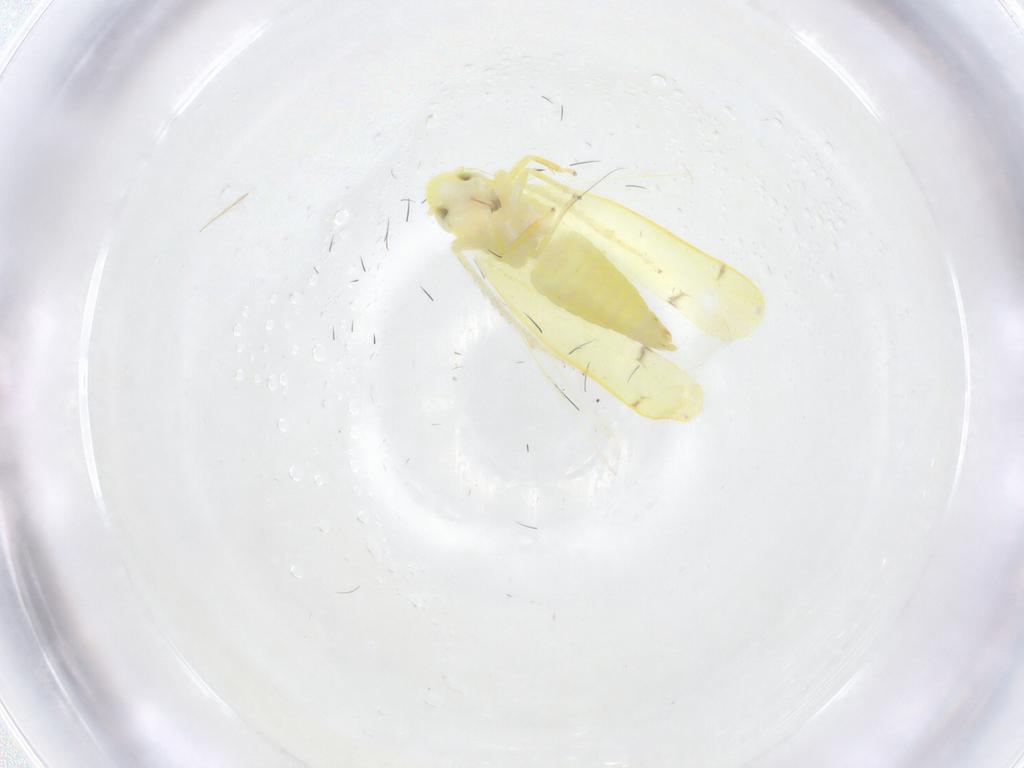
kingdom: Animalia
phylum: Arthropoda
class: Insecta
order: Hemiptera
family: Cicadellidae
